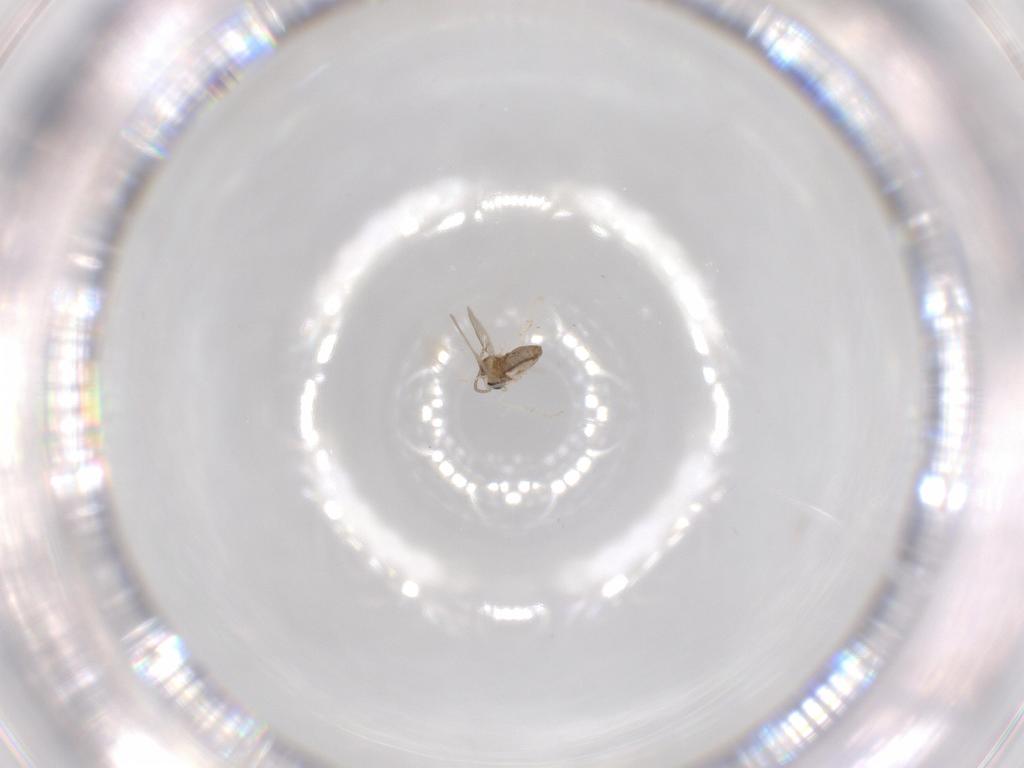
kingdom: Animalia
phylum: Arthropoda
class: Insecta
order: Diptera
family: Cecidomyiidae
